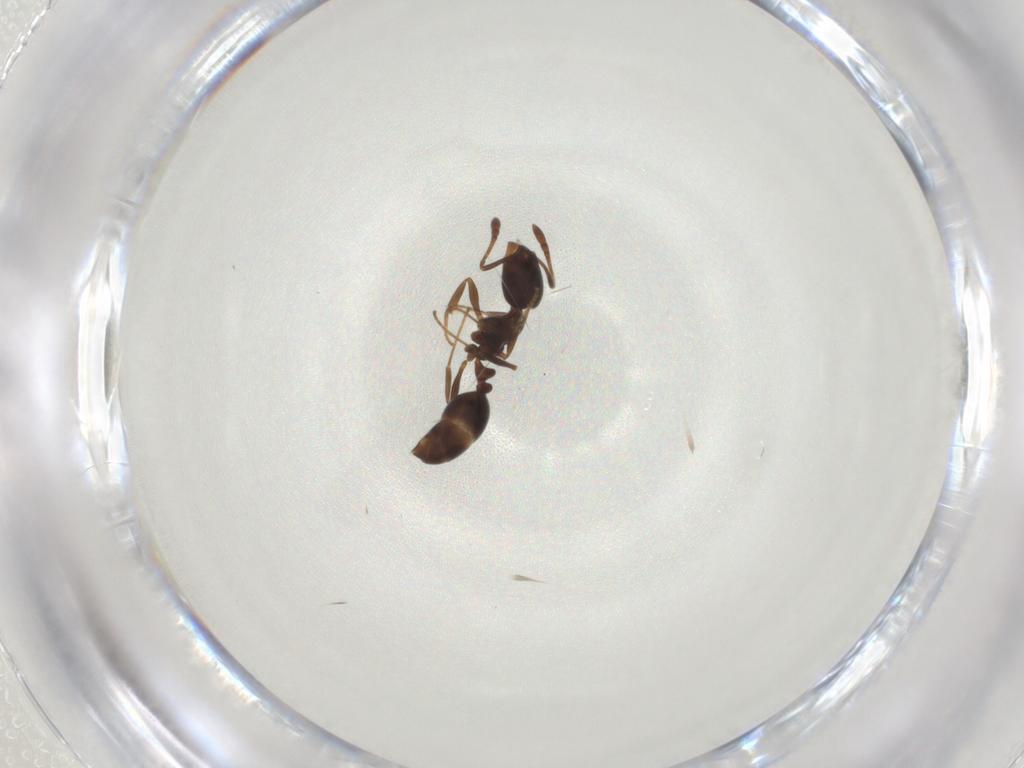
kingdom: Animalia
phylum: Arthropoda
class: Insecta
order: Hymenoptera
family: Formicidae
